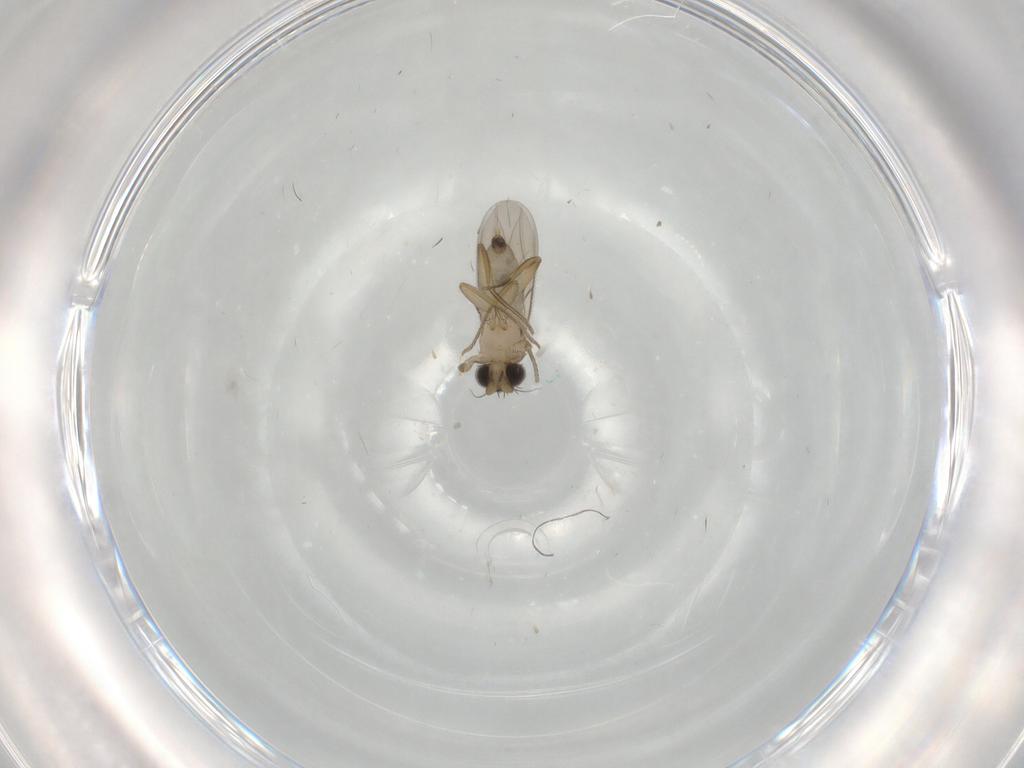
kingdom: Animalia
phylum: Arthropoda
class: Insecta
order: Diptera
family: Phoridae
